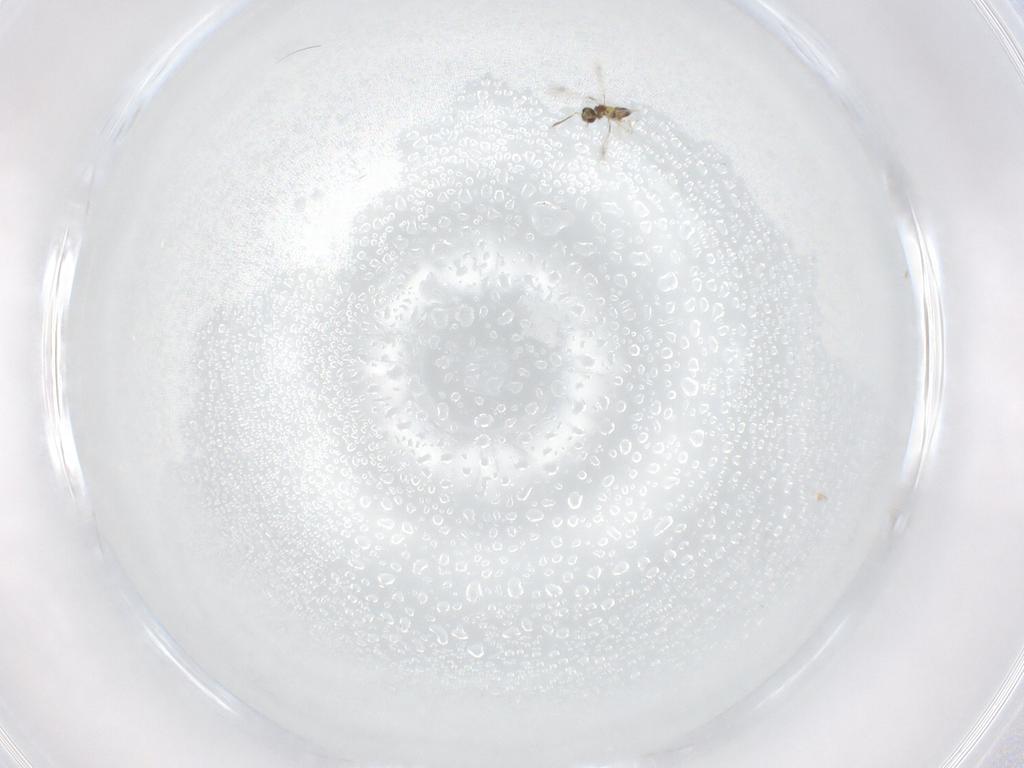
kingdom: Animalia
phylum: Arthropoda
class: Insecta
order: Hymenoptera
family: Mymaridae
